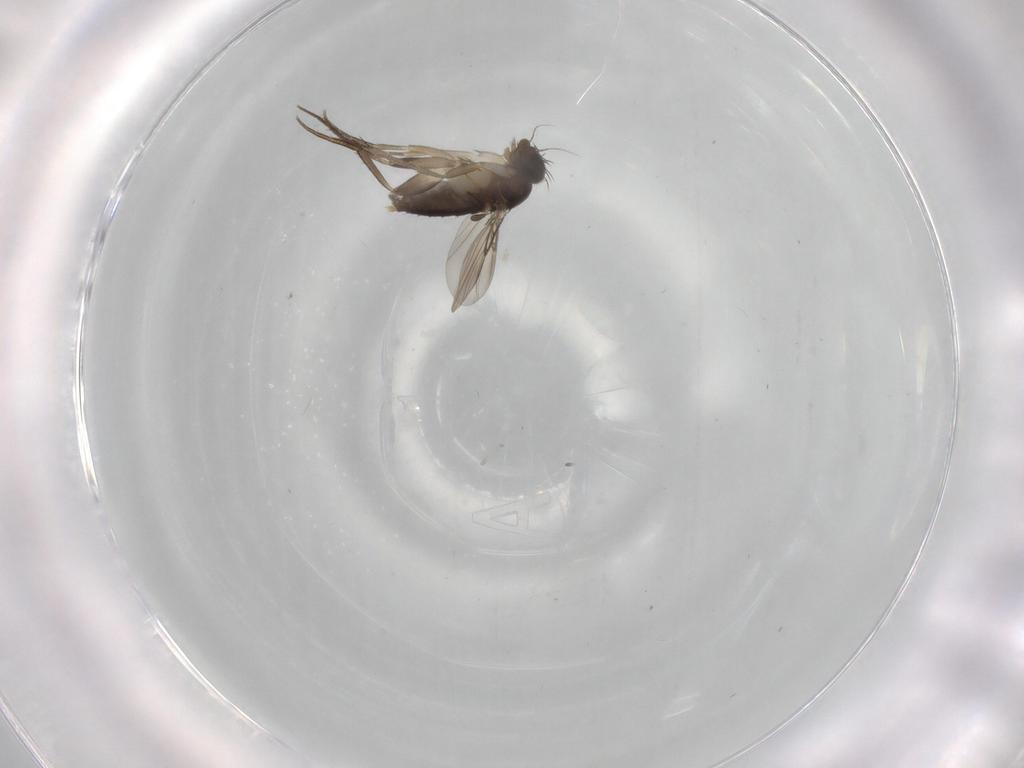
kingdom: Animalia
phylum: Arthropoda
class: Insecta
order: Diptera
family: Phoridae
